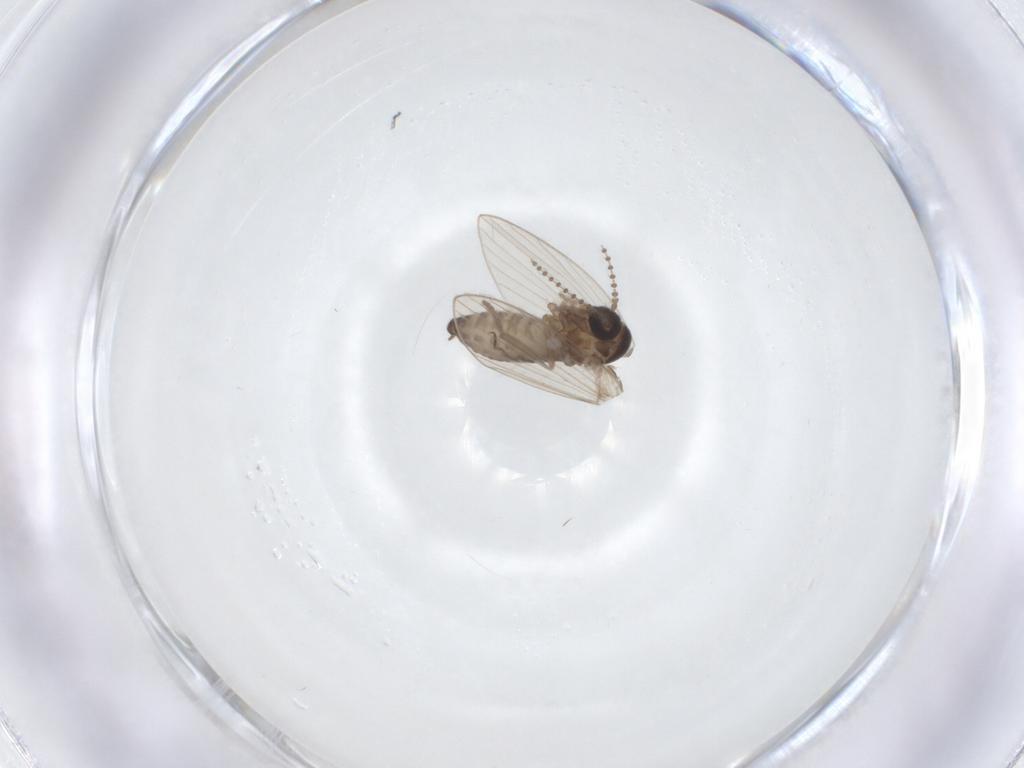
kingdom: Animalia
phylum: Arthropoda
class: Insecta
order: Diptera
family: Psychodidae
